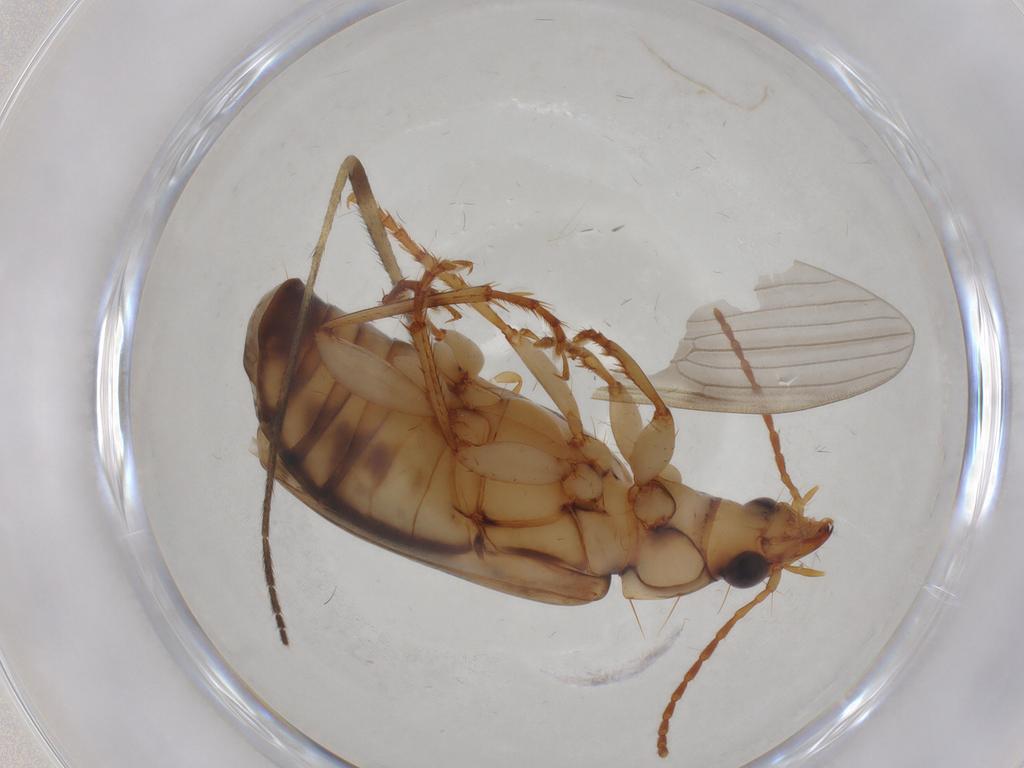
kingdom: Animalia
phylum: Arthropoda
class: Insecta
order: Coleoptera
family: Carabidae
